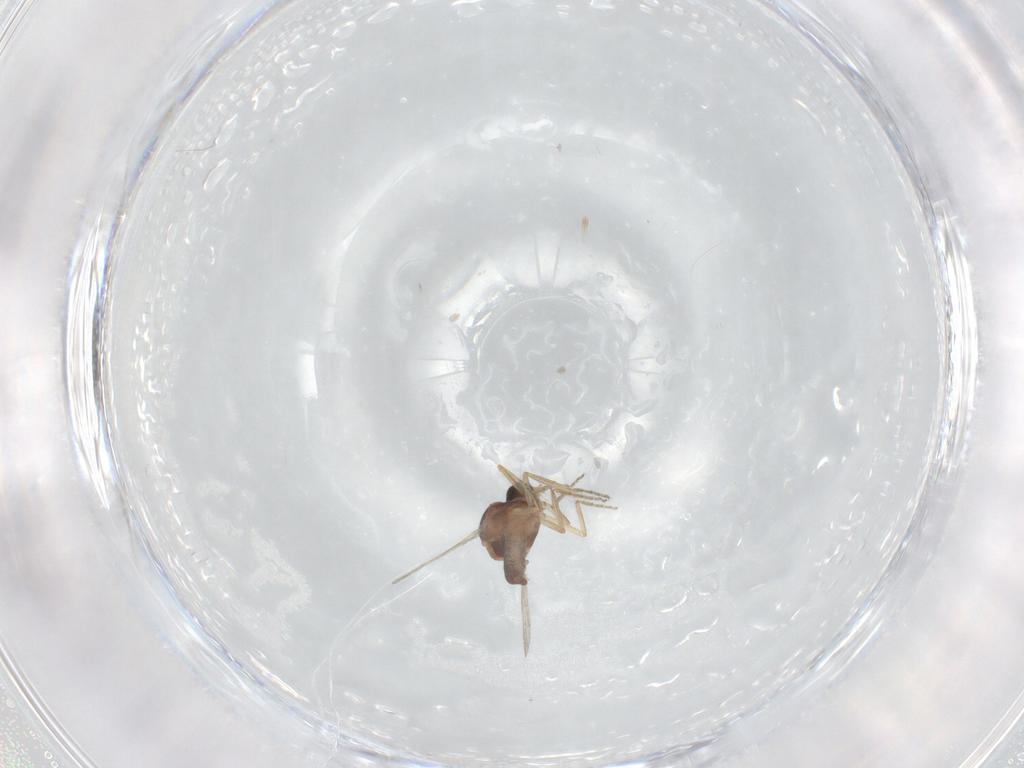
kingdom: Animalia
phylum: Arthropoda
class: Insecta
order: Diptera
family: Ceratopogonidae
